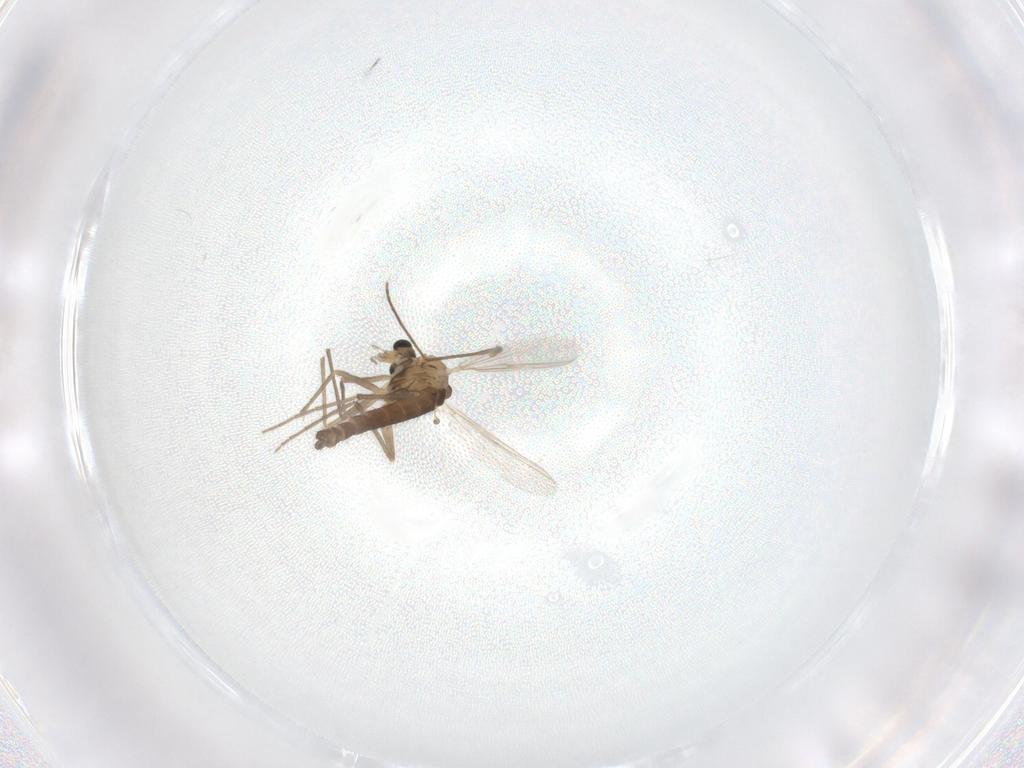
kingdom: Animalia
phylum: Arthropoda
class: Insecta
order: Diptera
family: Chironomidae
